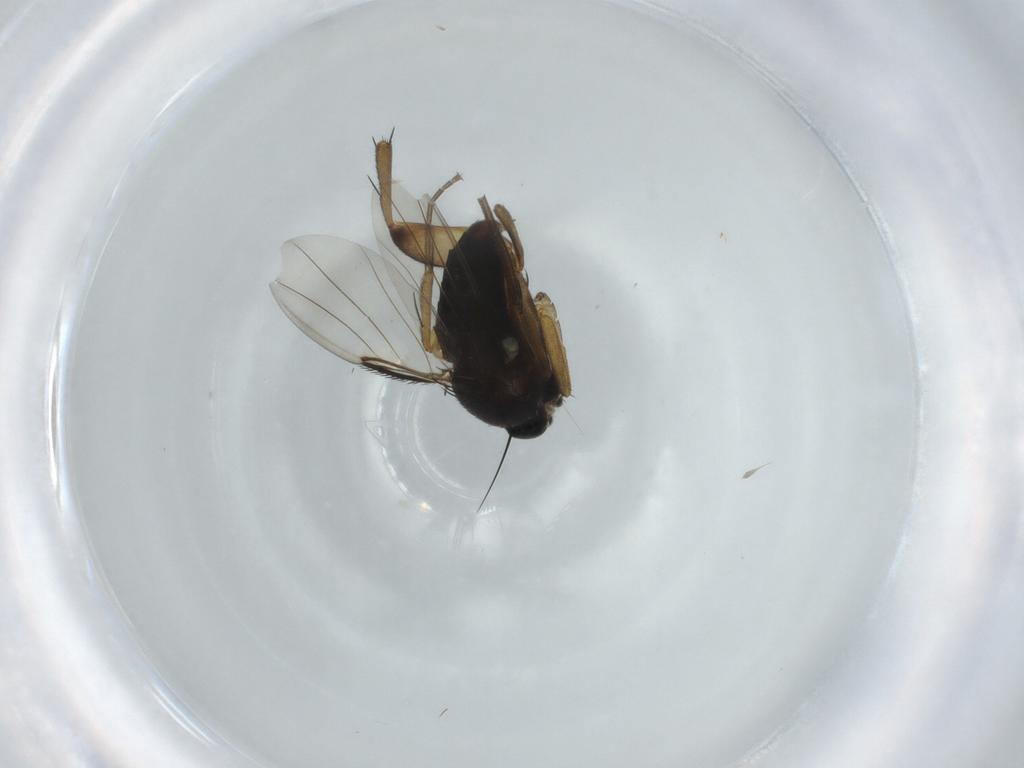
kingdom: Animalia
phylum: Arthropoda
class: Insecta
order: Diptera
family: Phoridae
